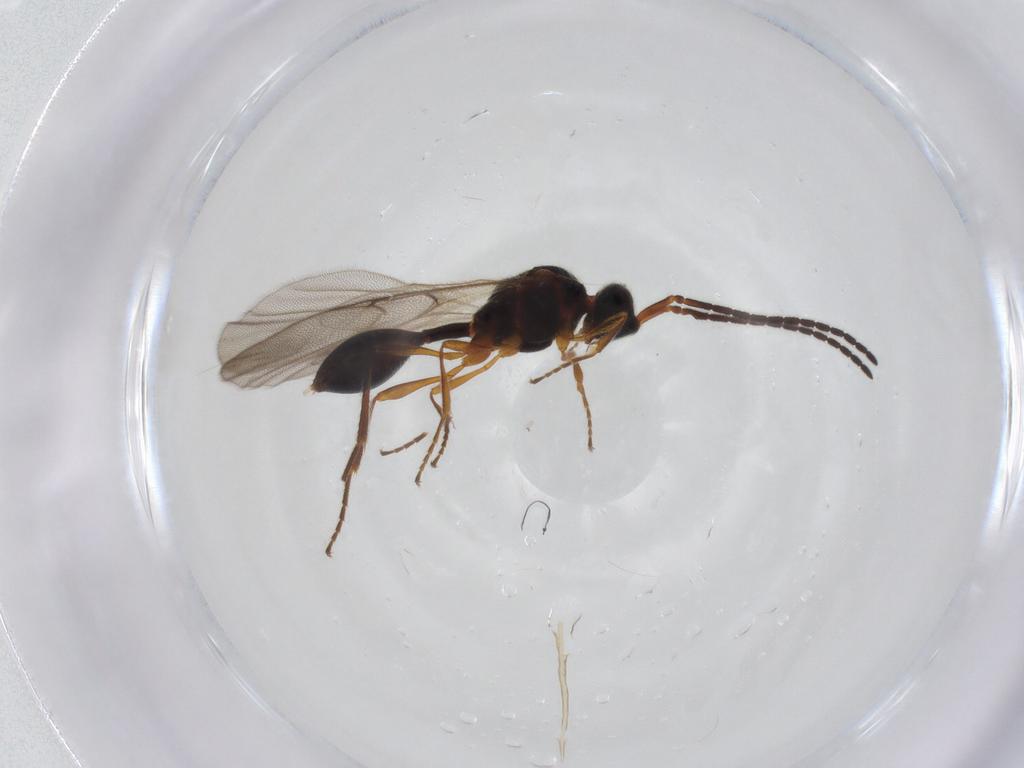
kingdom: Animalia
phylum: Arthropoda
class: Insecta
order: Hymenoptera
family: Diapriidae
